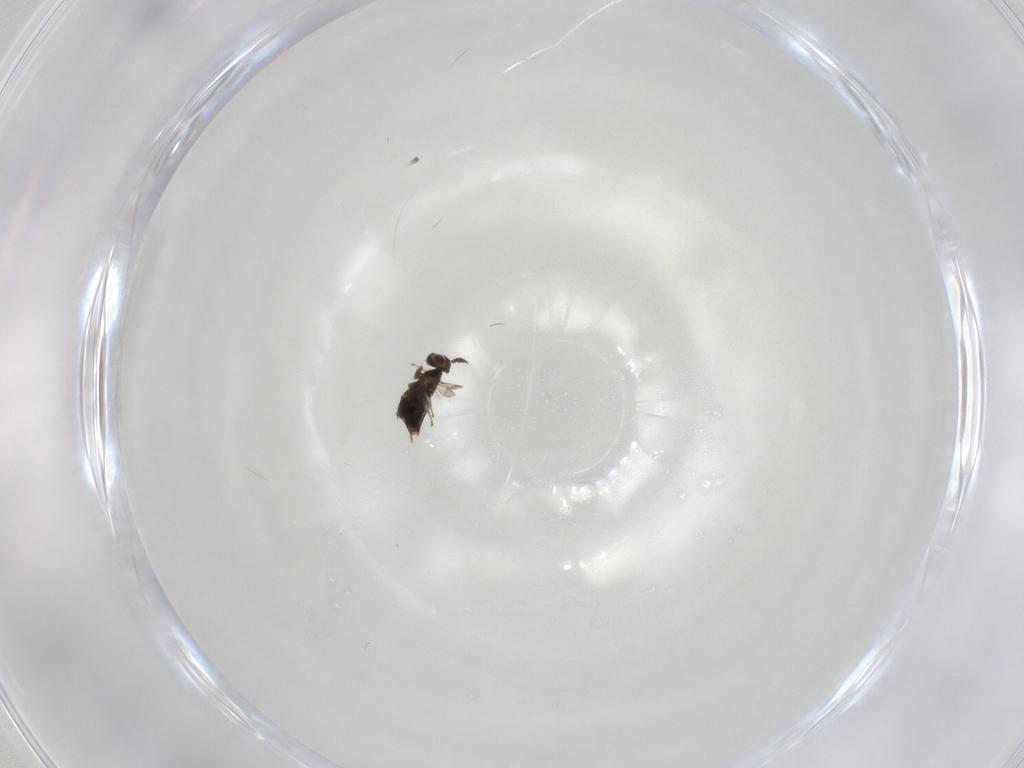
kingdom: Animalia
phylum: Arthropoda
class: Insecta
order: Hymenoptera
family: Aphelinidae
